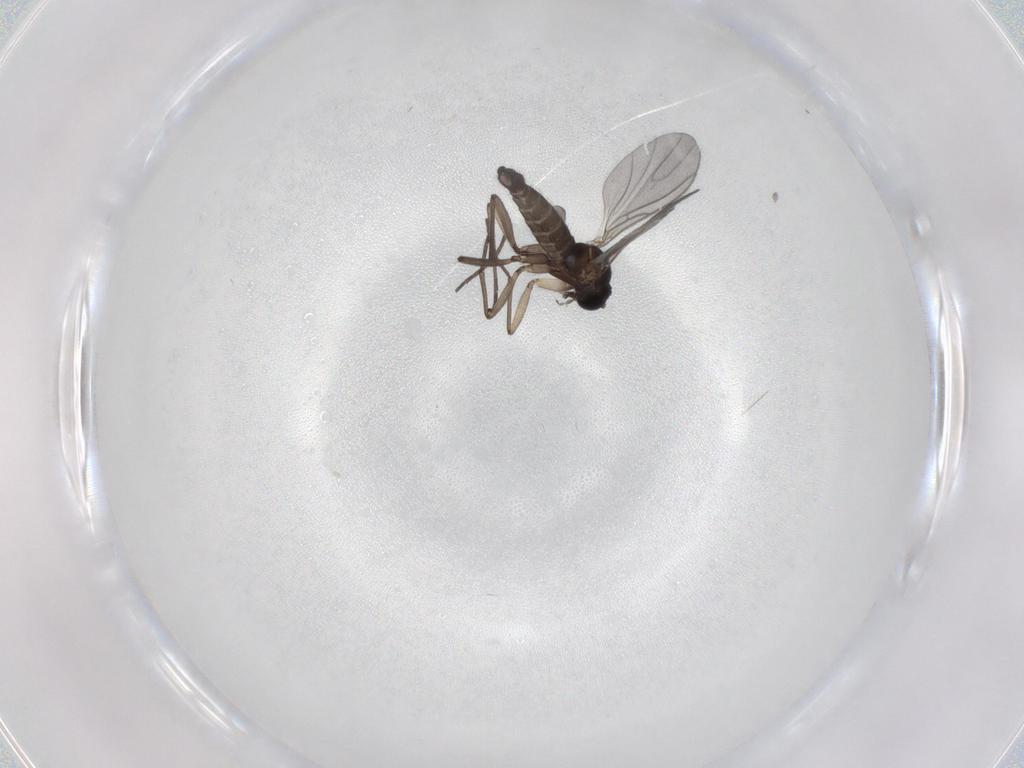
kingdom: Animalia
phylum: Arthropoda
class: Insecta
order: Diptera
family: Sciaridae
